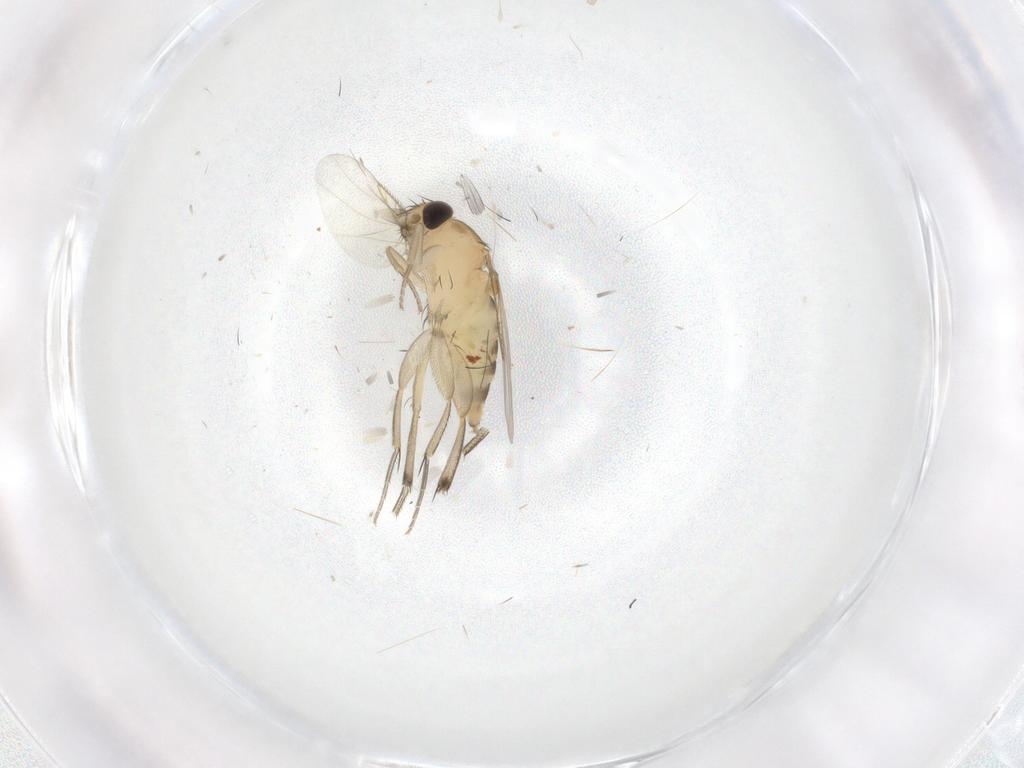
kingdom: Animalia
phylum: Arthropoda
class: Insecta
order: Diptera
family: Phoridae
